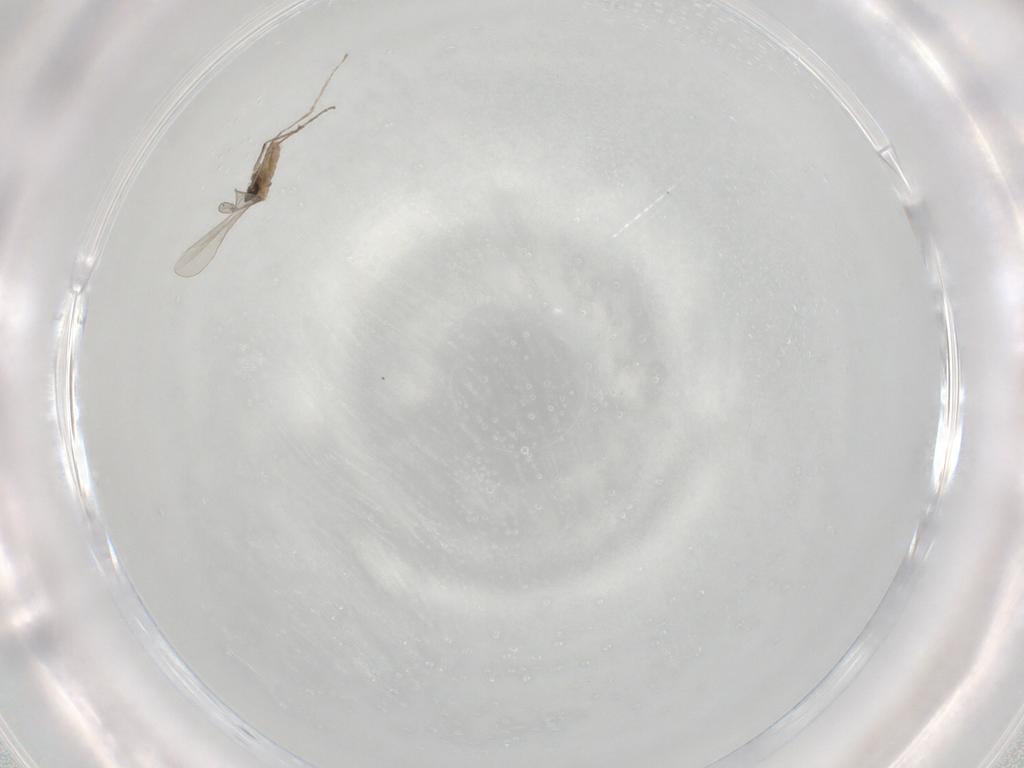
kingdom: Animalia
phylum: Arthropoda
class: Insecta
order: Diptera
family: Cecidomyiidae
